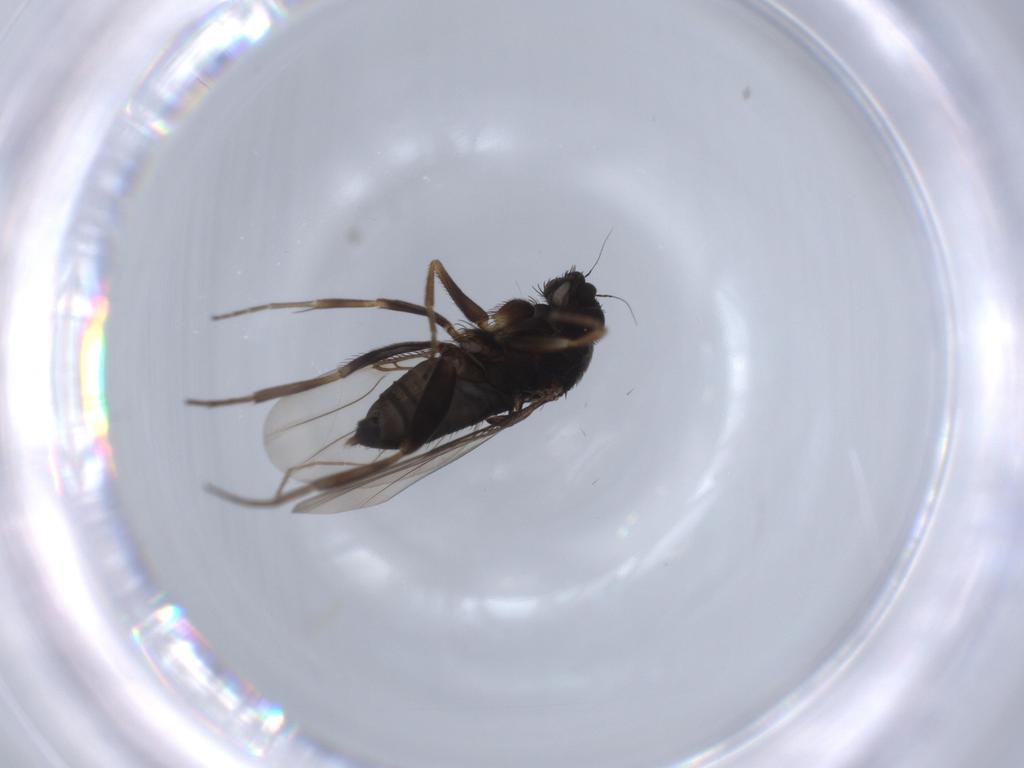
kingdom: Animalia
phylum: Arthropoda
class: Insecta
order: Diptera
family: Phoridae
